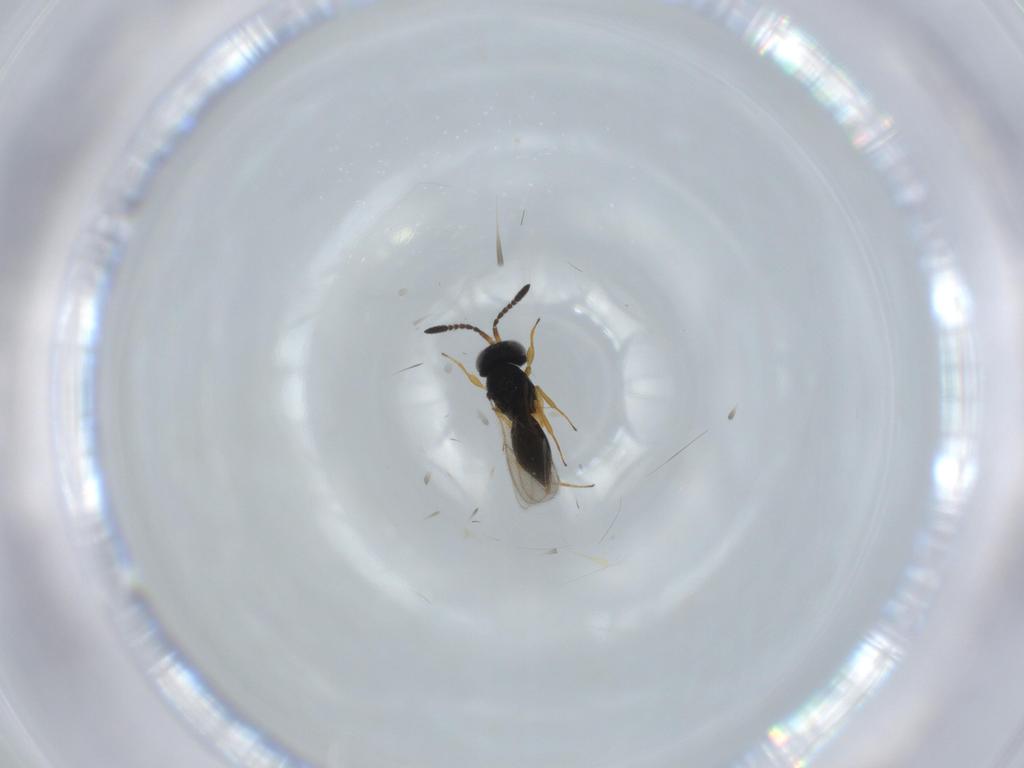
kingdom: Animalia
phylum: Arthropoda
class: Insecta
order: Hymenoptera
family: Scelionidae
